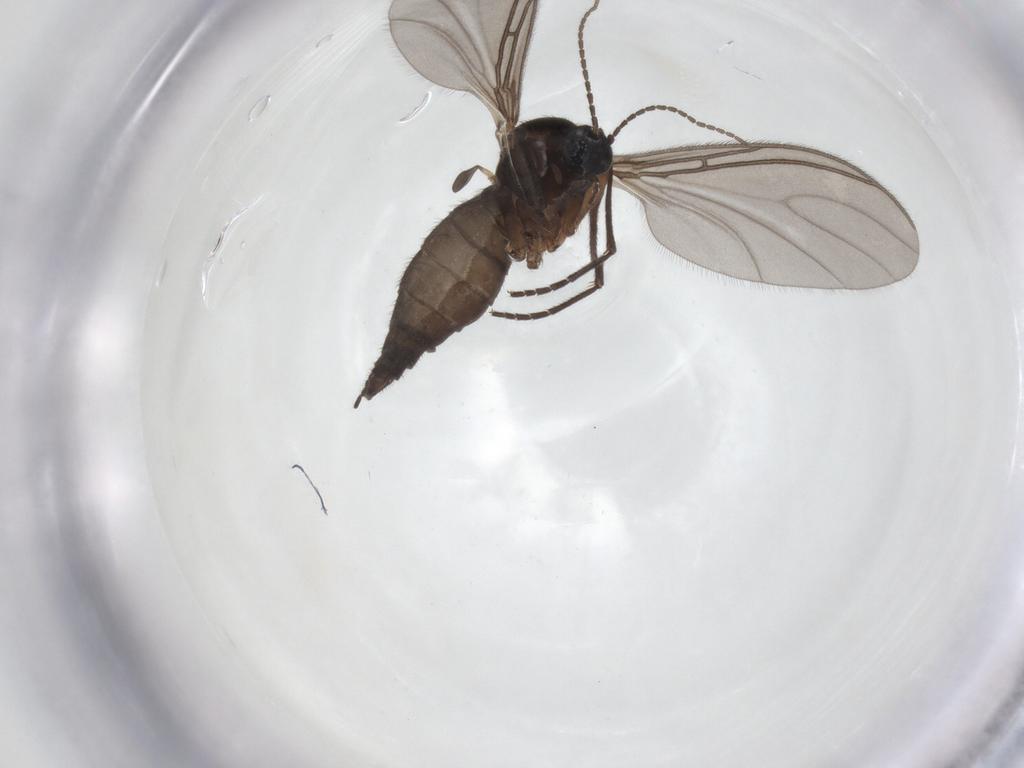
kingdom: Animalia
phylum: Arthropoda
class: Insecta
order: Diptera
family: Sciaridae
